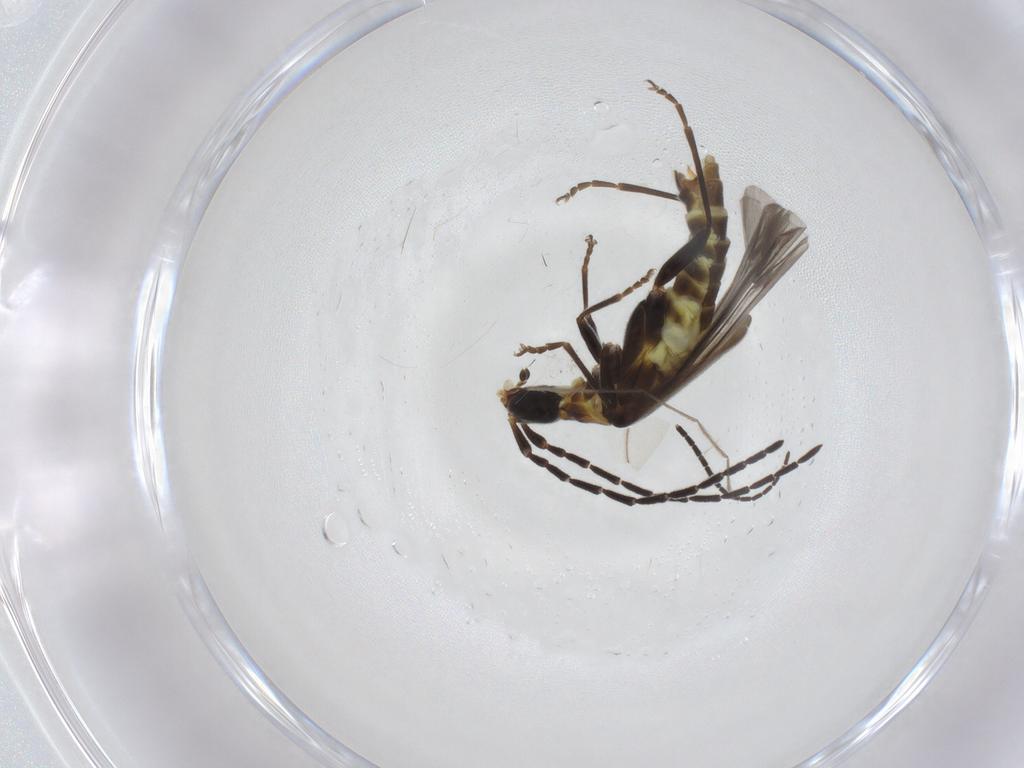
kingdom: Animalia
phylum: Arthropoda
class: Insecta
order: Coleoptera
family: Cantharidae
